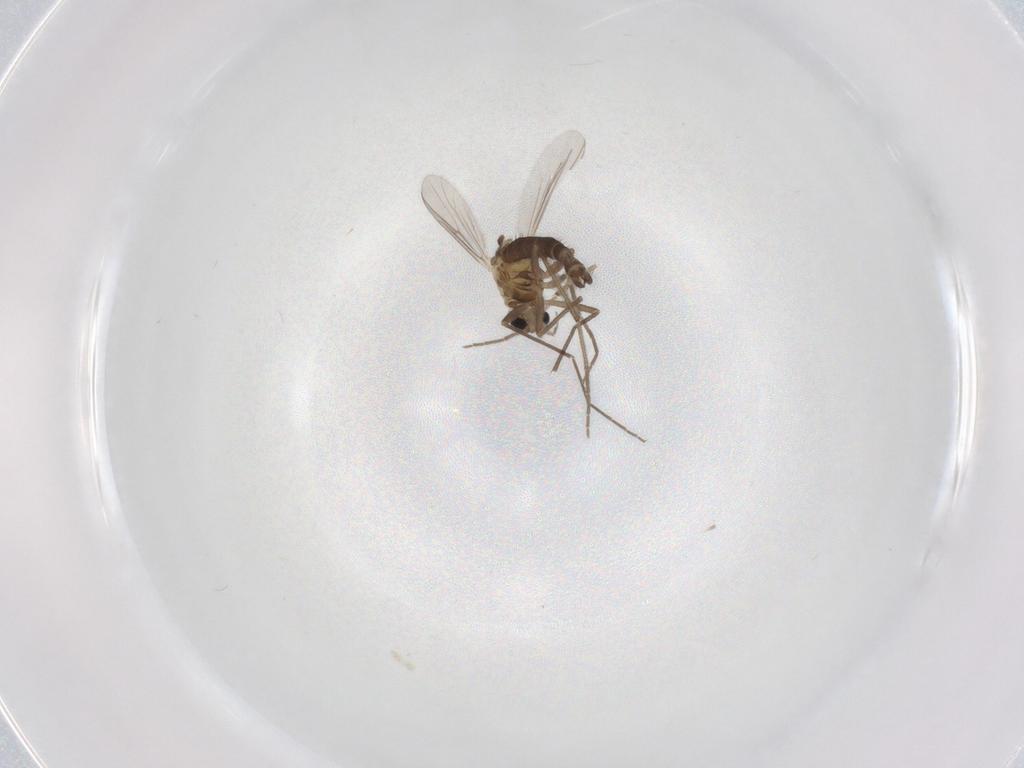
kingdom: Animalia
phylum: Arthropoda
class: Insecta
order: Diptera
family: Chironomidae
